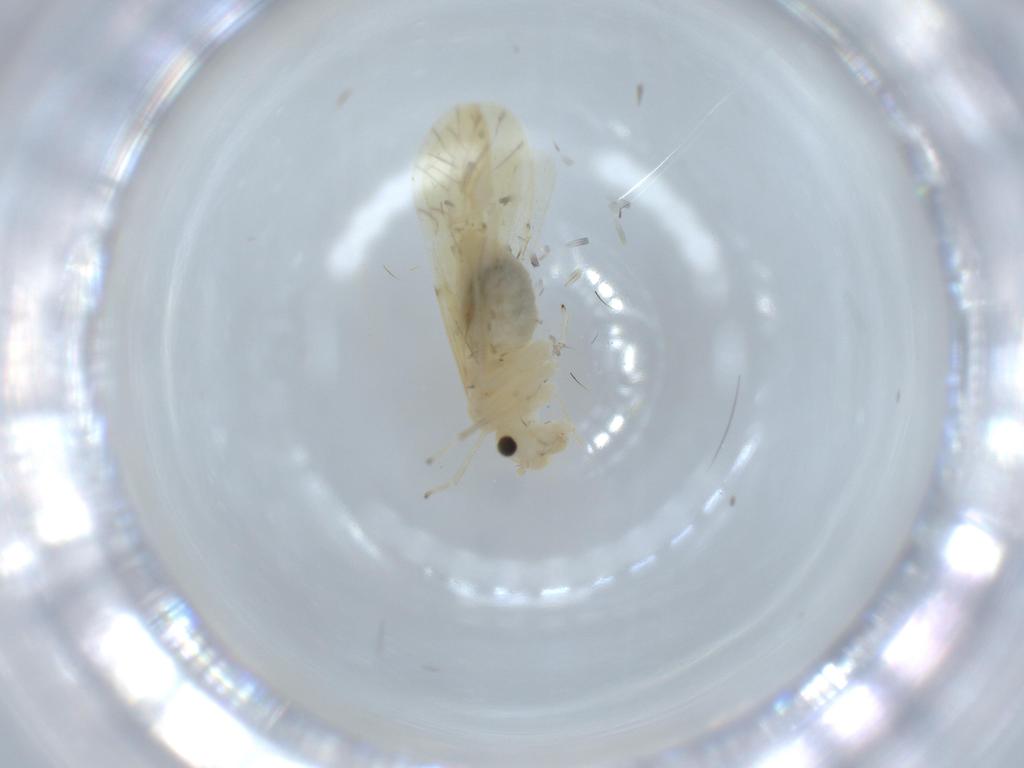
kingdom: Animalia
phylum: Arthropoda
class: Insecta
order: Psocodea
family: Caeciliusidae
